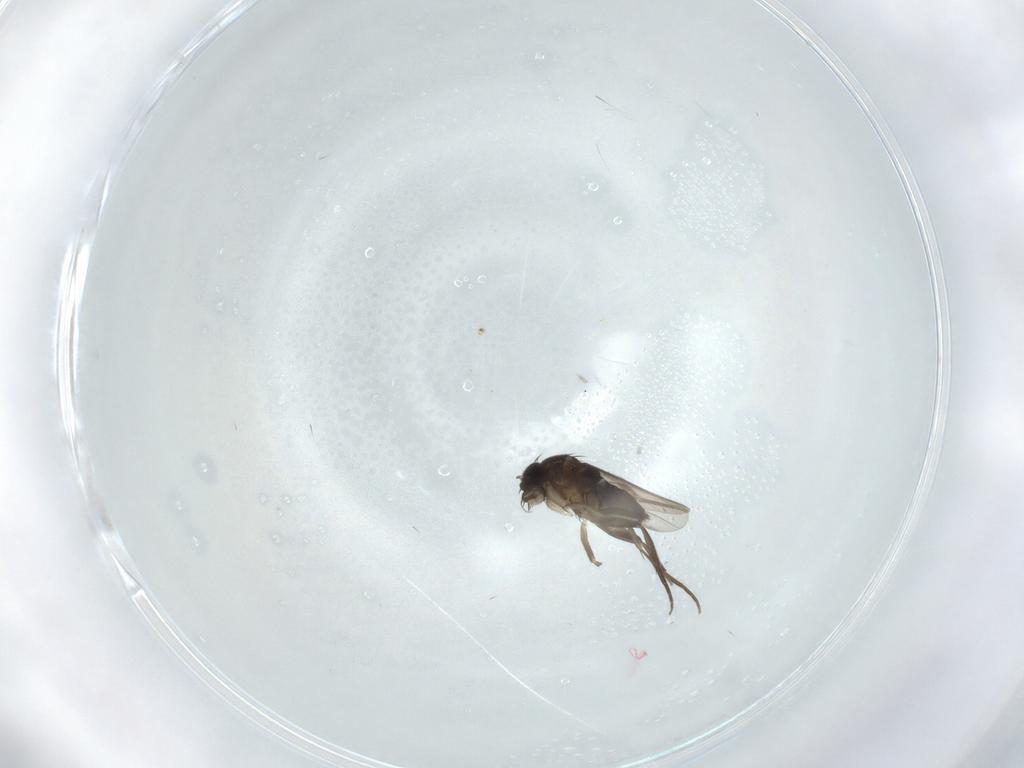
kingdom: Animalia
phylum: Arthropoda
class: Insecta
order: Diptera
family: Phoridae
